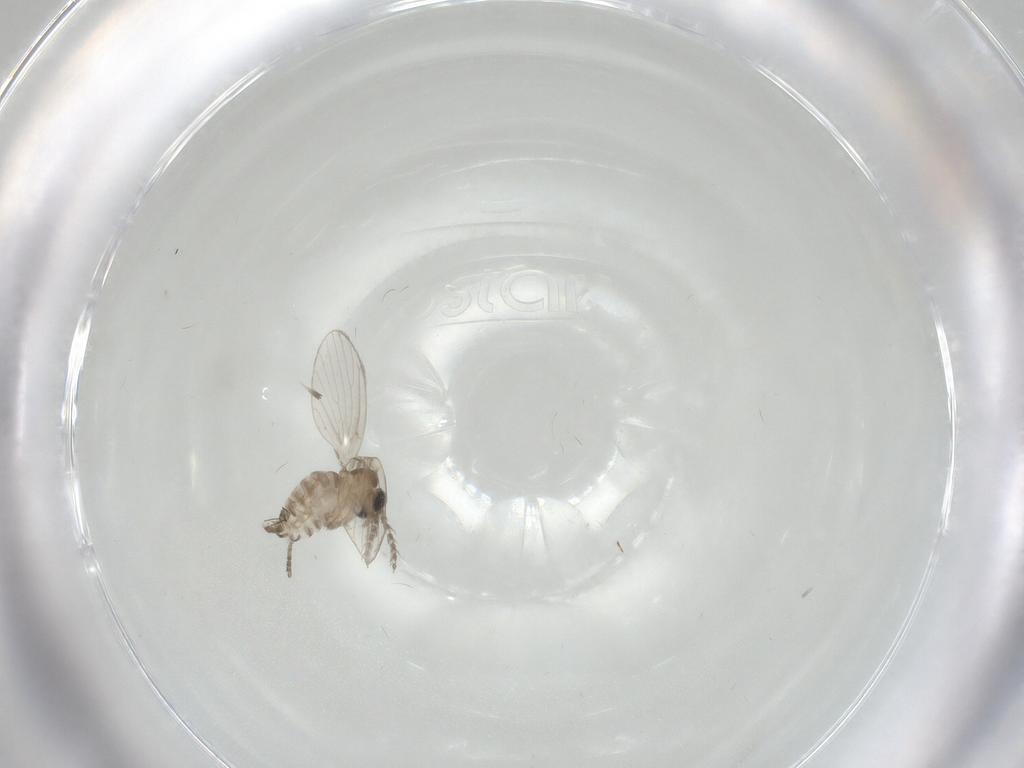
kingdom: Animalia
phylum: Arthropoda
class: Insecta
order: Diptera
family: Psychodidae
